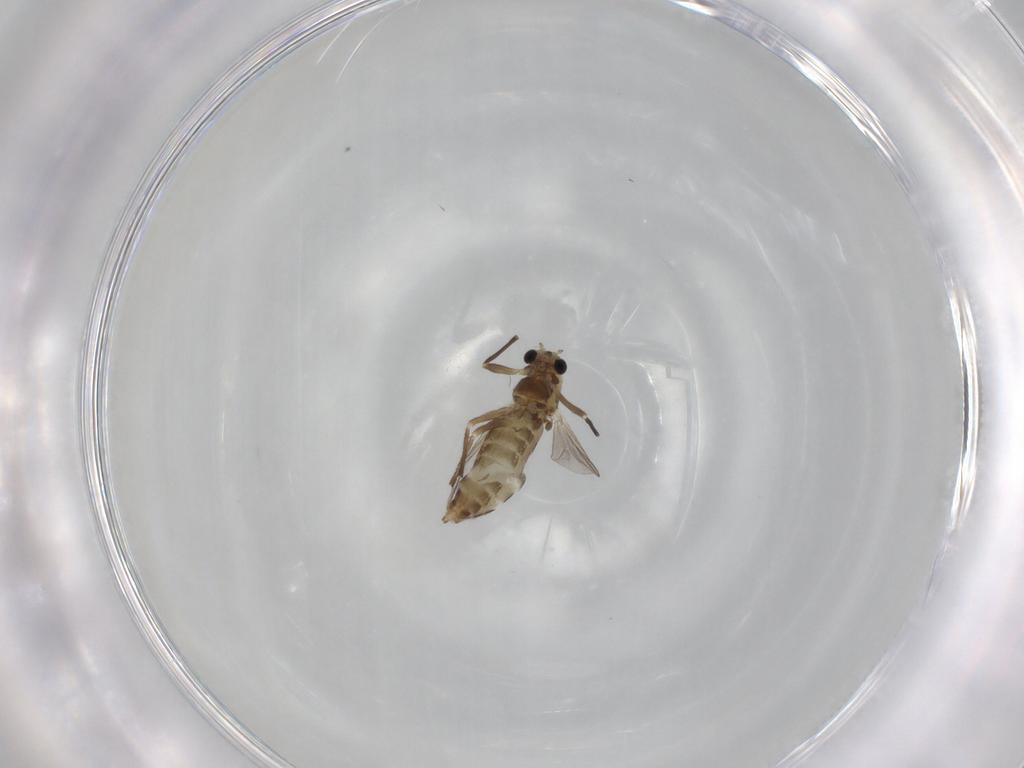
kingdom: Animalia
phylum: Arthropoda
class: Insecta
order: Diptera
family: Chironomidae
